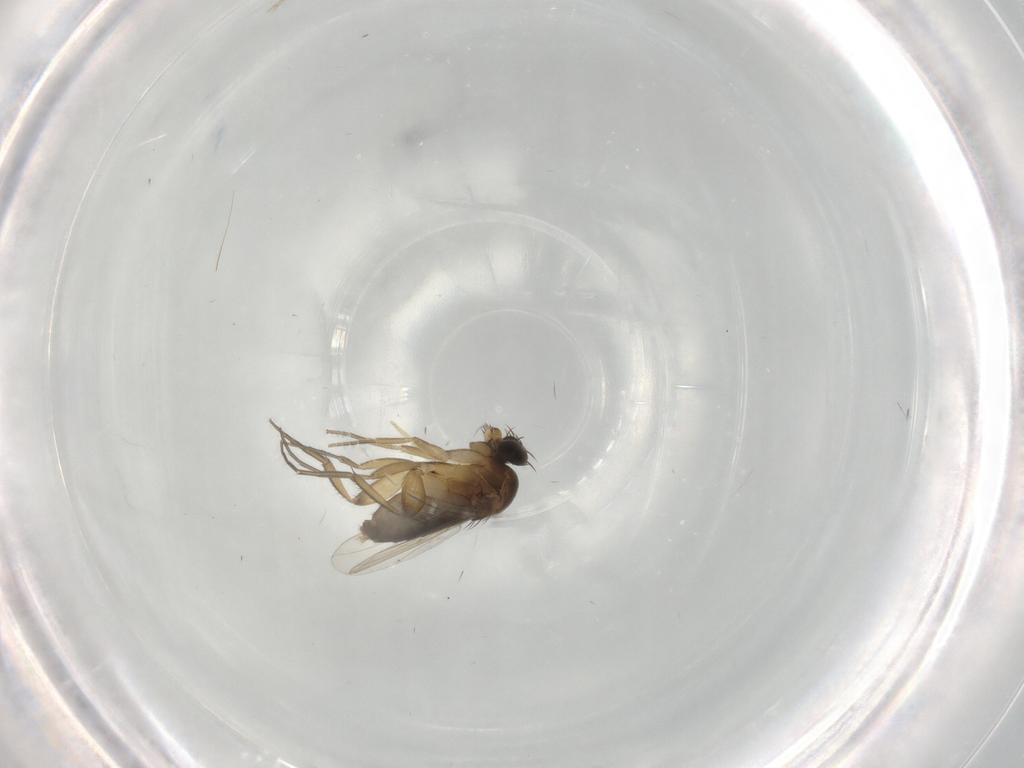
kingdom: Animalia
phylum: Arthropoda
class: Insecta
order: Diptera
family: Phoridae
